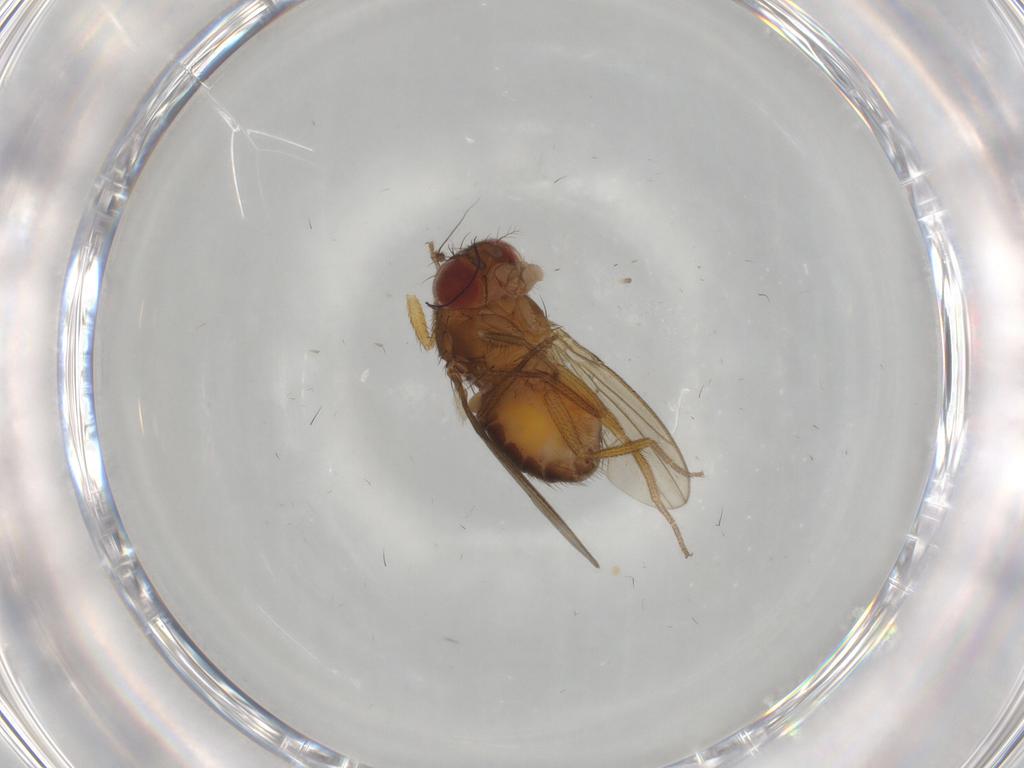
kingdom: Animalia
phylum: Arthropoda
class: Insecta
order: Diptera
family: Drosophilidae
